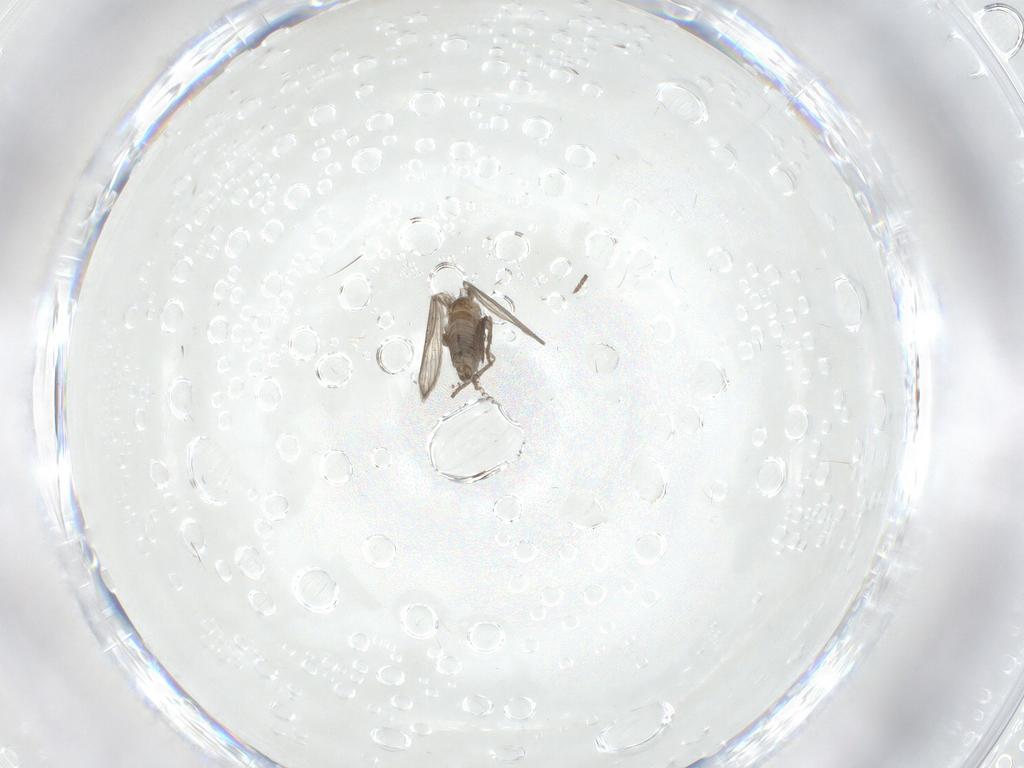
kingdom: Animalia
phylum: Arthropoda
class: Insecta
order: Diptera
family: Psychodidae
